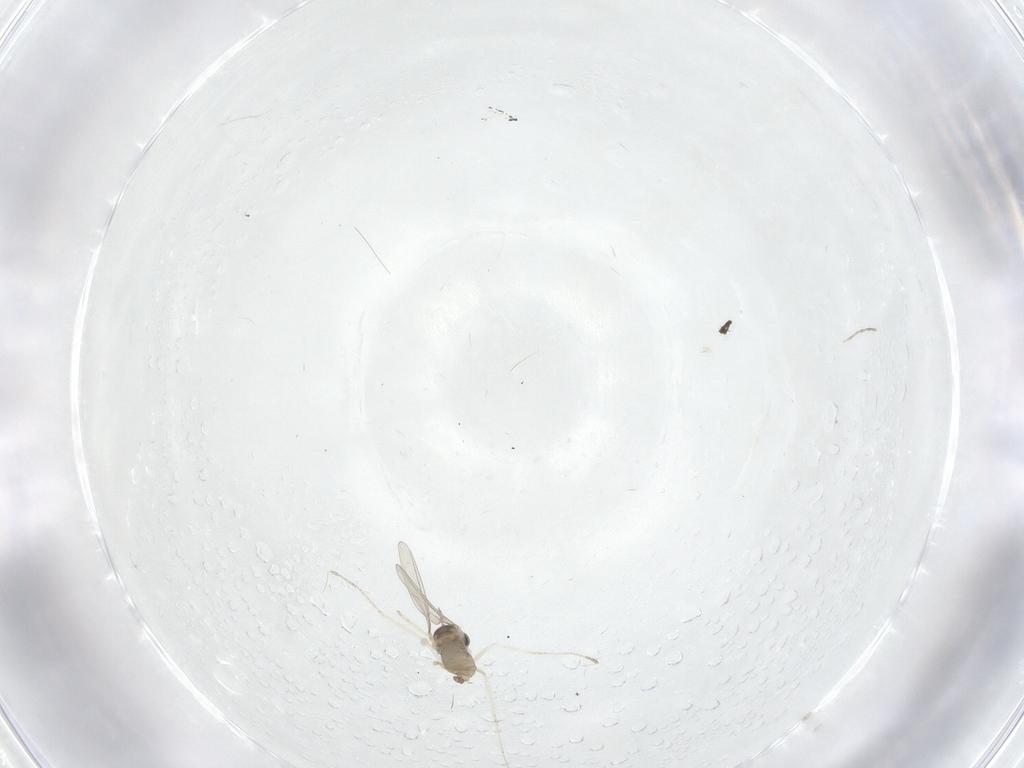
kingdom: Animalia
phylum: Arthropoda
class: Insecta
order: Diptera
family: Cecidomyiidae
